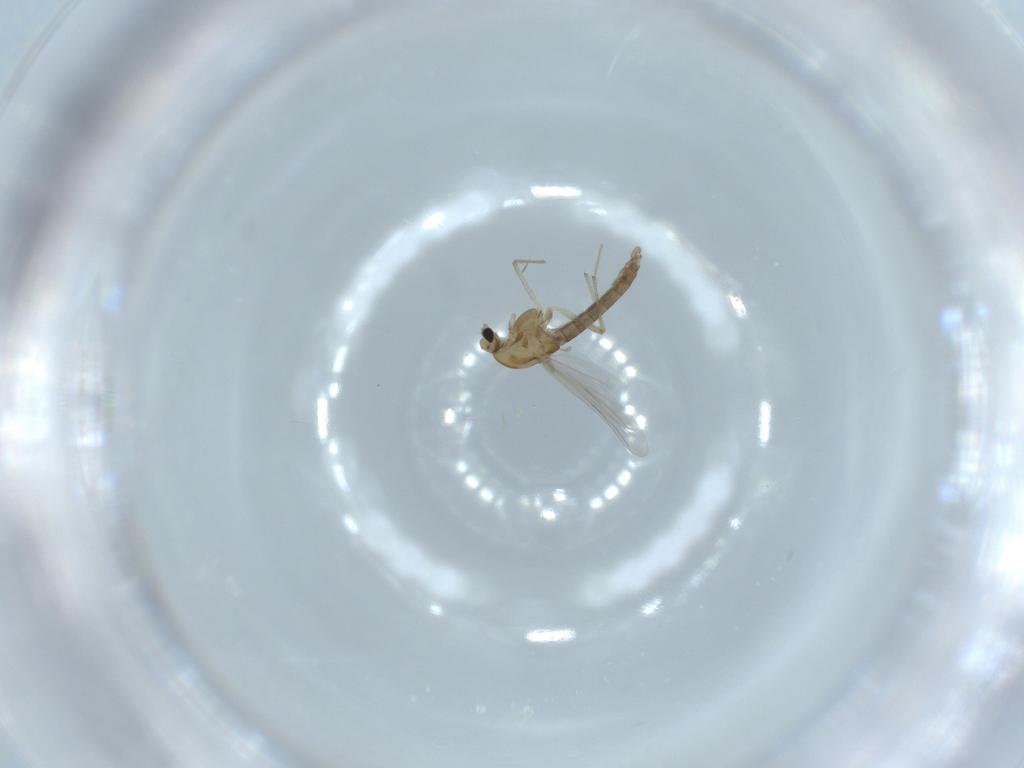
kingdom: Animalia
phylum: Arthropoda
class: Insecta
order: Diptera
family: Chironomidae
